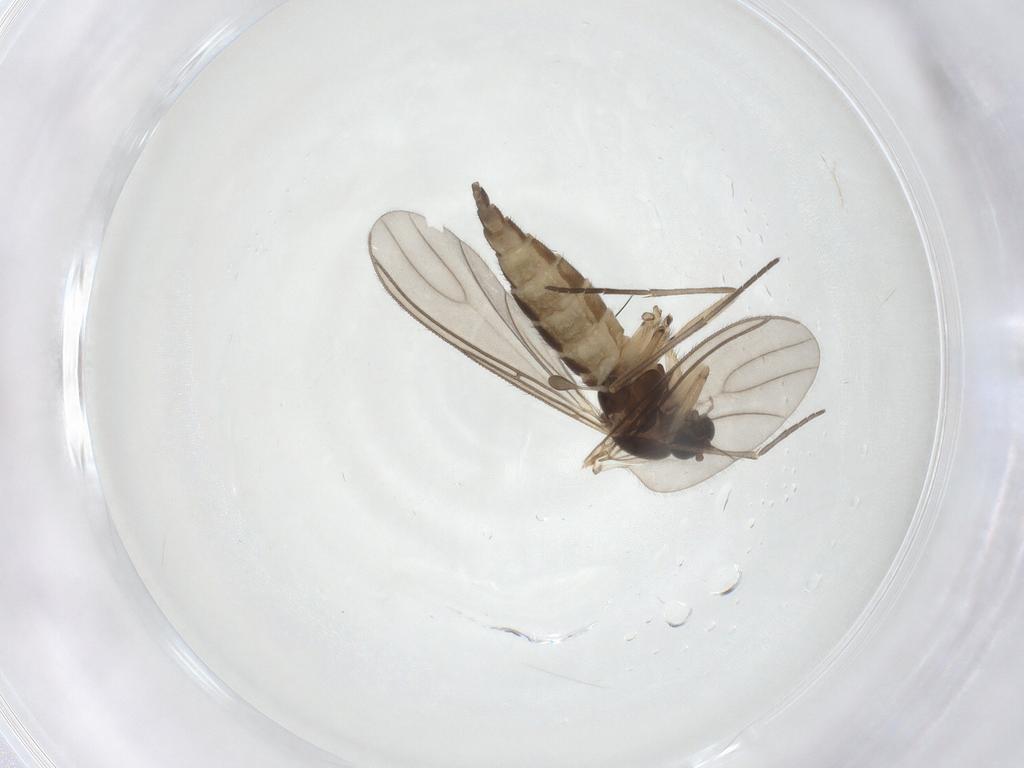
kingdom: Animalia
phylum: Arthropoda
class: Insecta
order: Diptera
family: Sciaridae
